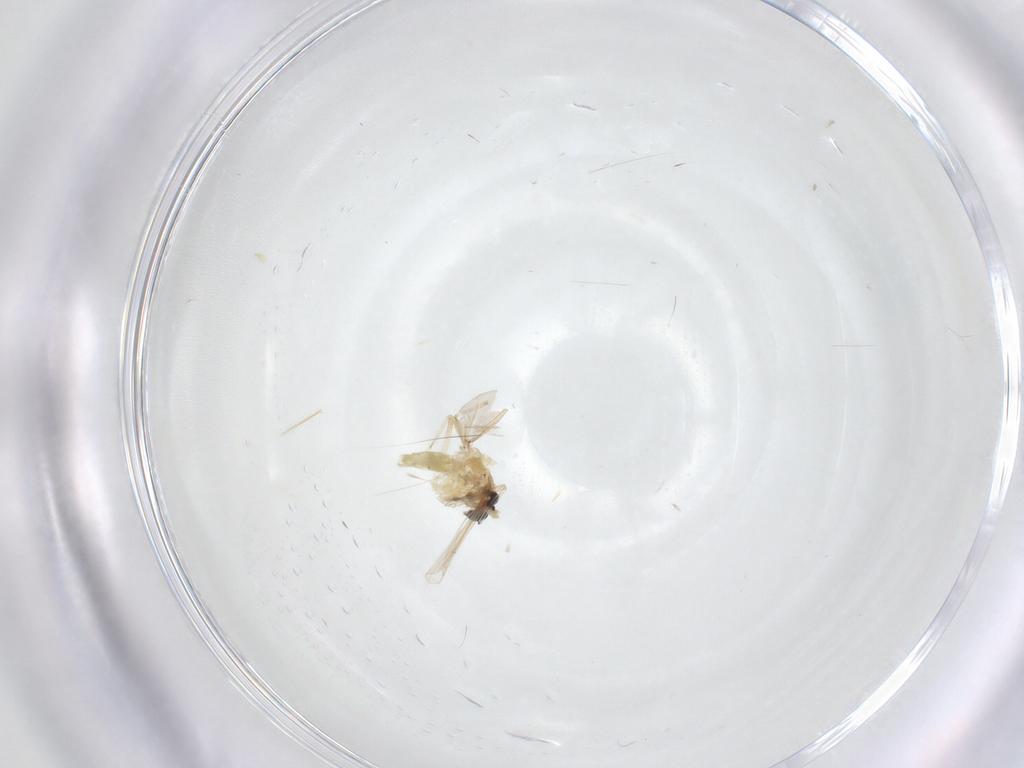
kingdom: Animalia
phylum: Arthropoda
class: Insecta
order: Diptera
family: Chironomidae
